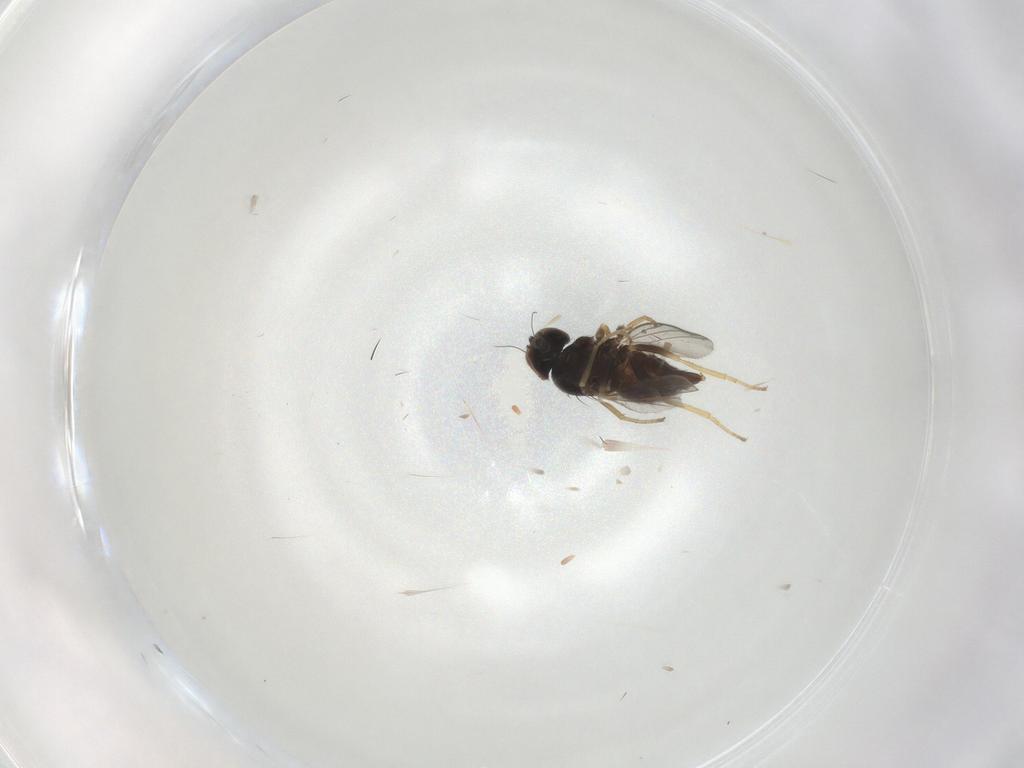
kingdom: Animalia
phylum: Arthropoda
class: Insecta
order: Diptera
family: Dolichopodidae
